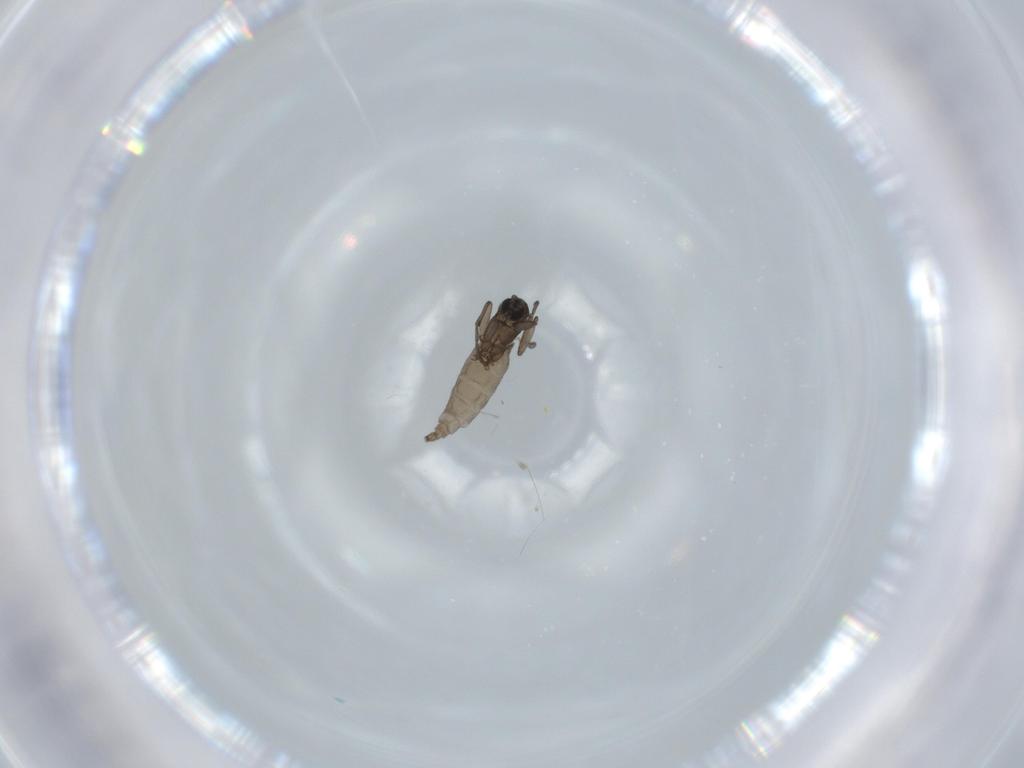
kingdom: Animalia
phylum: Arthropoda
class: Insecta
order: Diptera
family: Sciaridae
